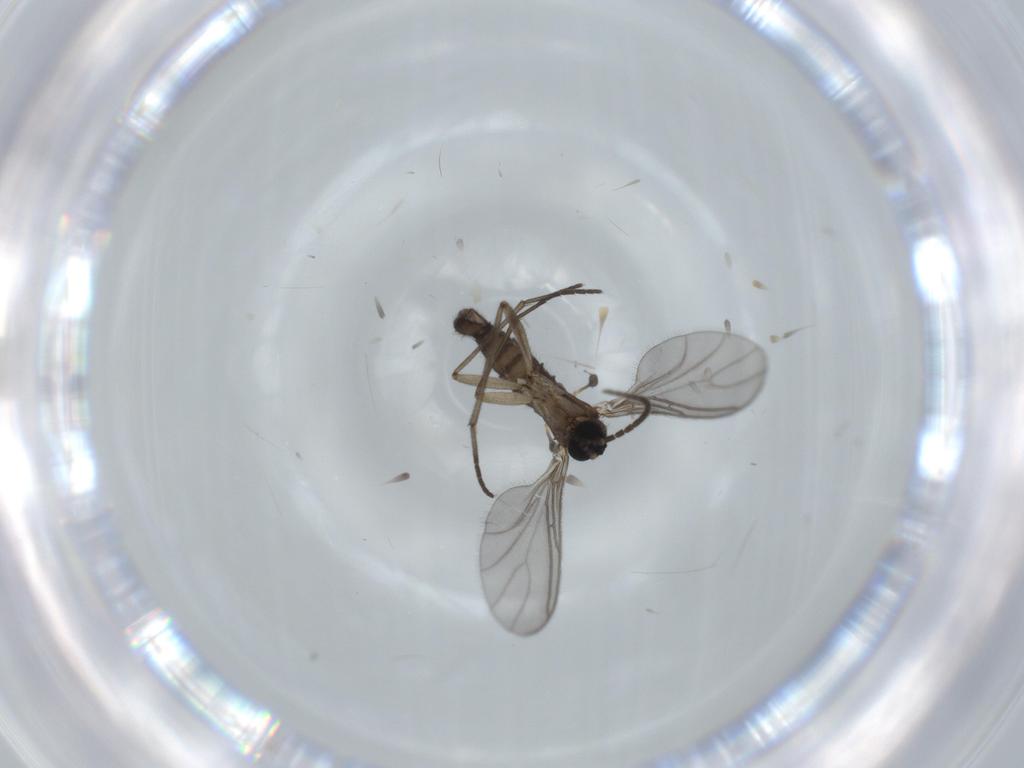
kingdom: Animalia
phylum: Arthropoda
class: Insecta
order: Diptera
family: Sciaridae
